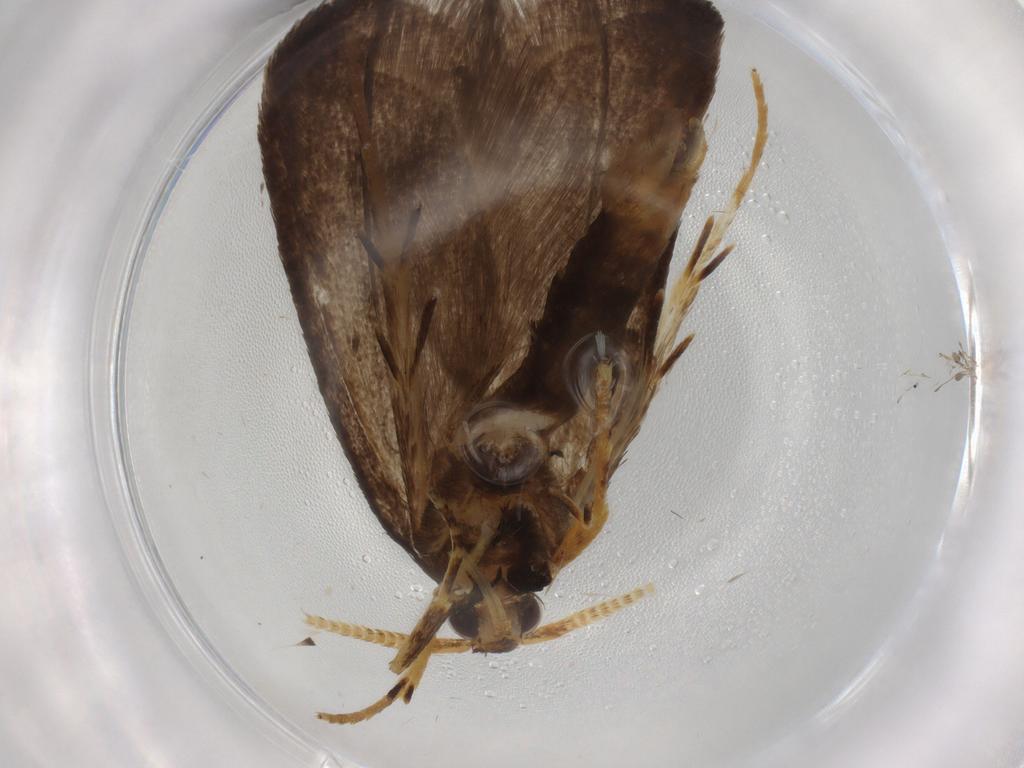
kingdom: Animalia
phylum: Arthropoda
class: Insecta
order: Lepidoptera
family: Lecithoceridae
